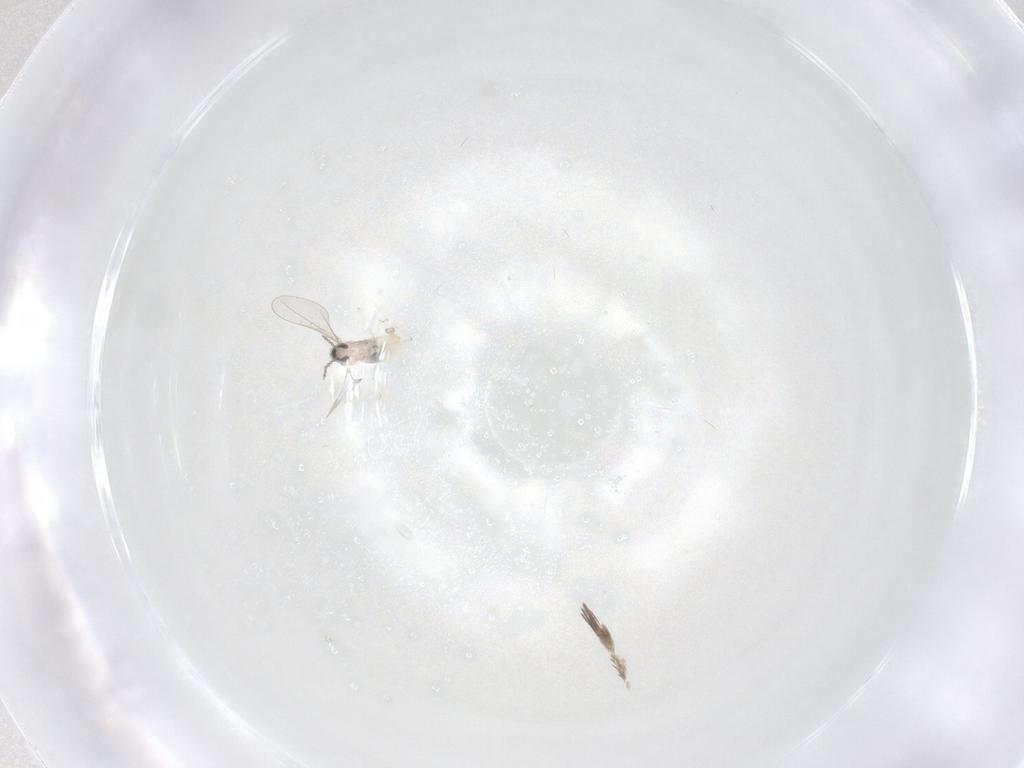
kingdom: Animalia
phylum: Arthropoda
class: Insecta
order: Diptera
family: Cecidomyiidae
